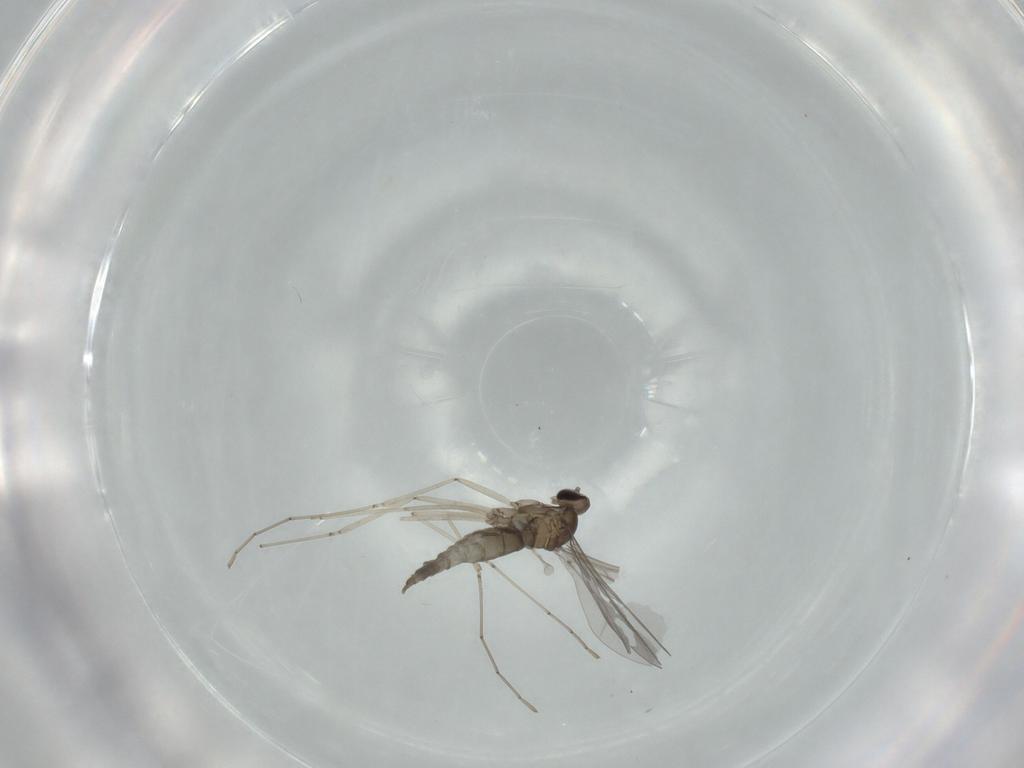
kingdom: Animalia
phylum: Arthropoda
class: Insecta
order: Diptera
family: Cecidomyiidae
